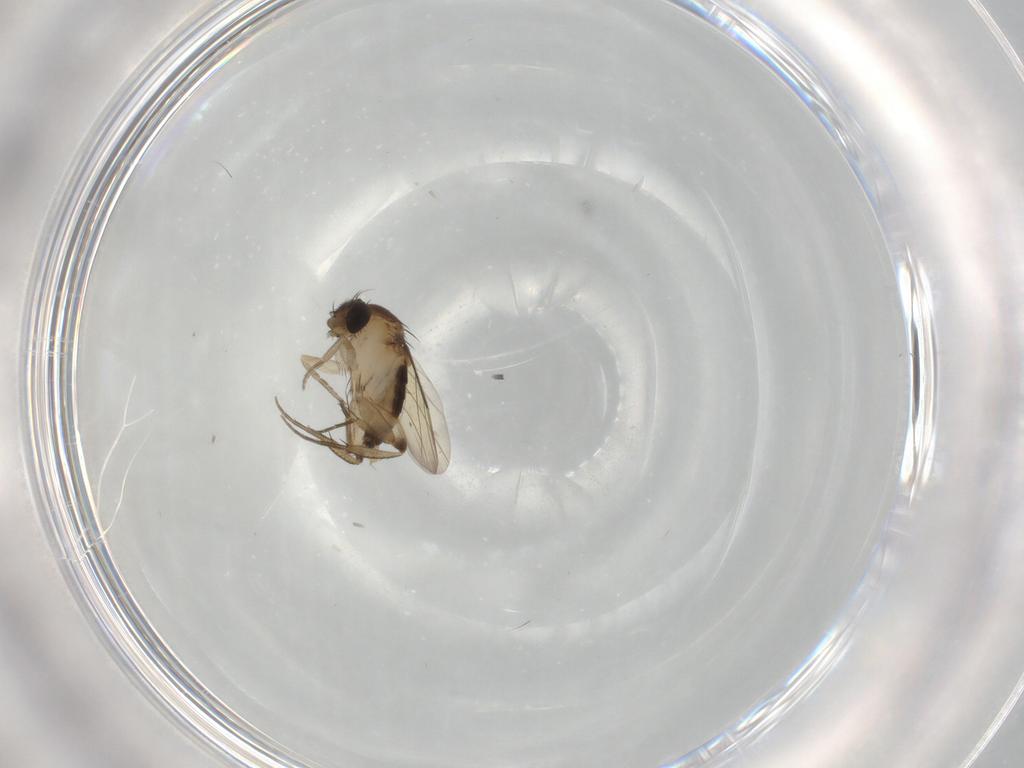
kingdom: Animalia
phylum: Arthropoda
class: Insecta
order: Diptera
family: Phoridae
